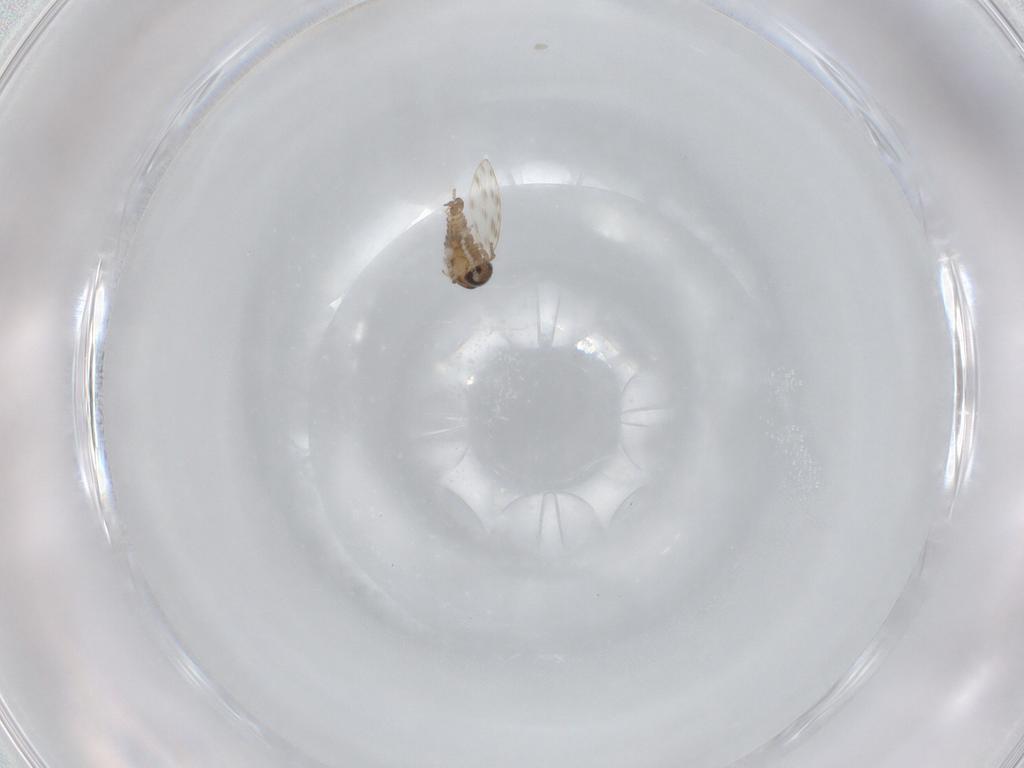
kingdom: Animalia
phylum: Arthropoda
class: Insecta
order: Diptera
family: Psychodidae
